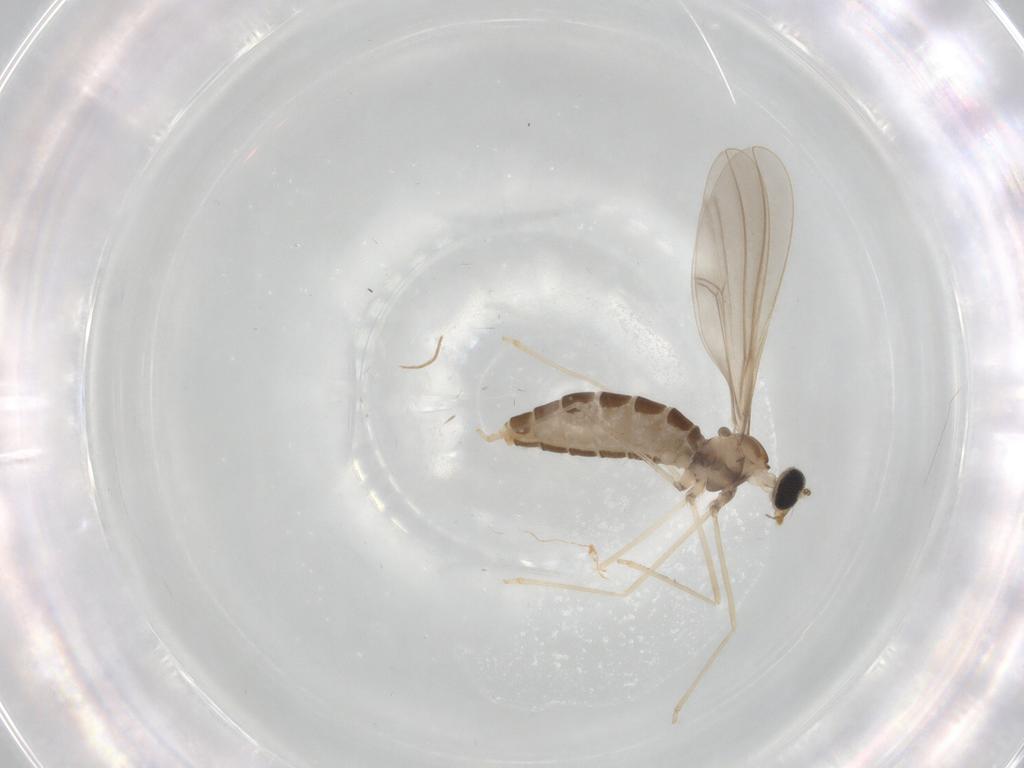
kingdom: Animalia
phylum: Arthropoda
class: Insecta
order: Diptera
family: Cecidomyiidae
